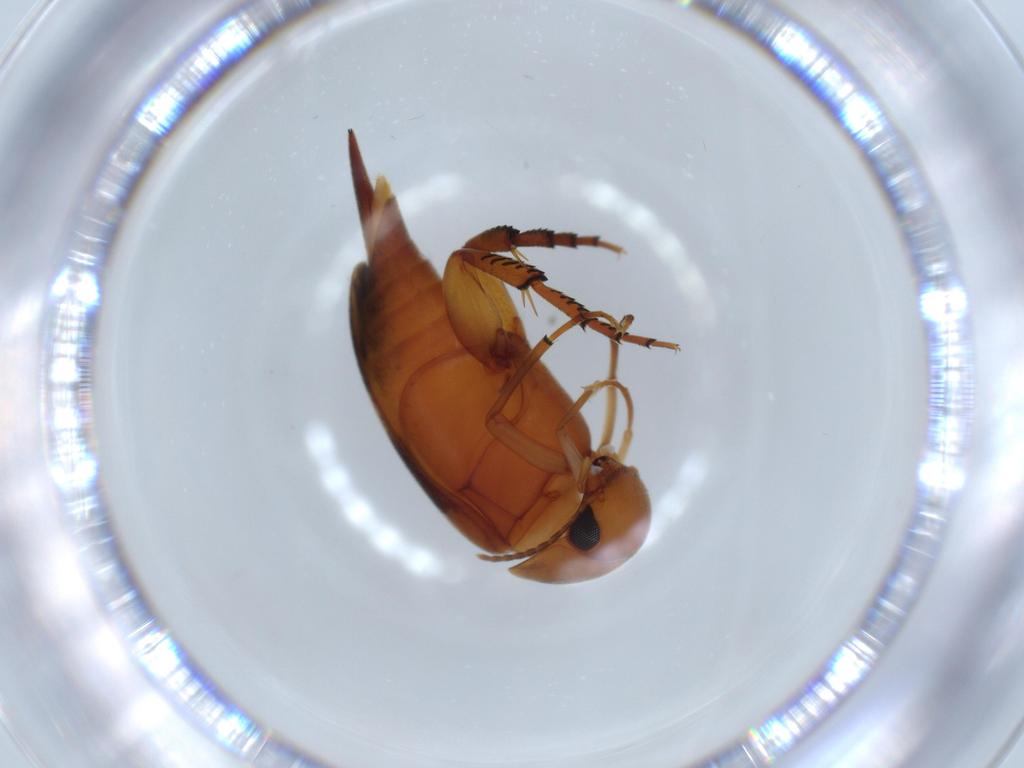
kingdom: Animalia
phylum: Arthropoda
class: Insecta
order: Coleoptera
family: Mordellidae
